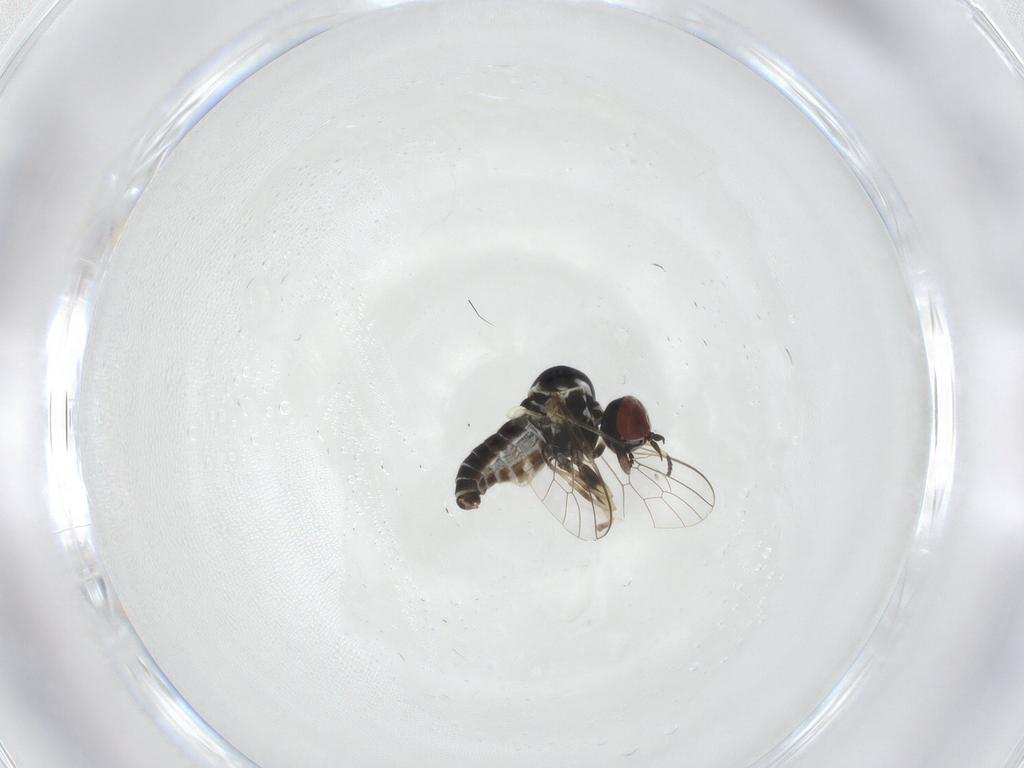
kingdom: Animalia
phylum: Arthropoda
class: Insecta
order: Diptera
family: Mythicomyiidae
